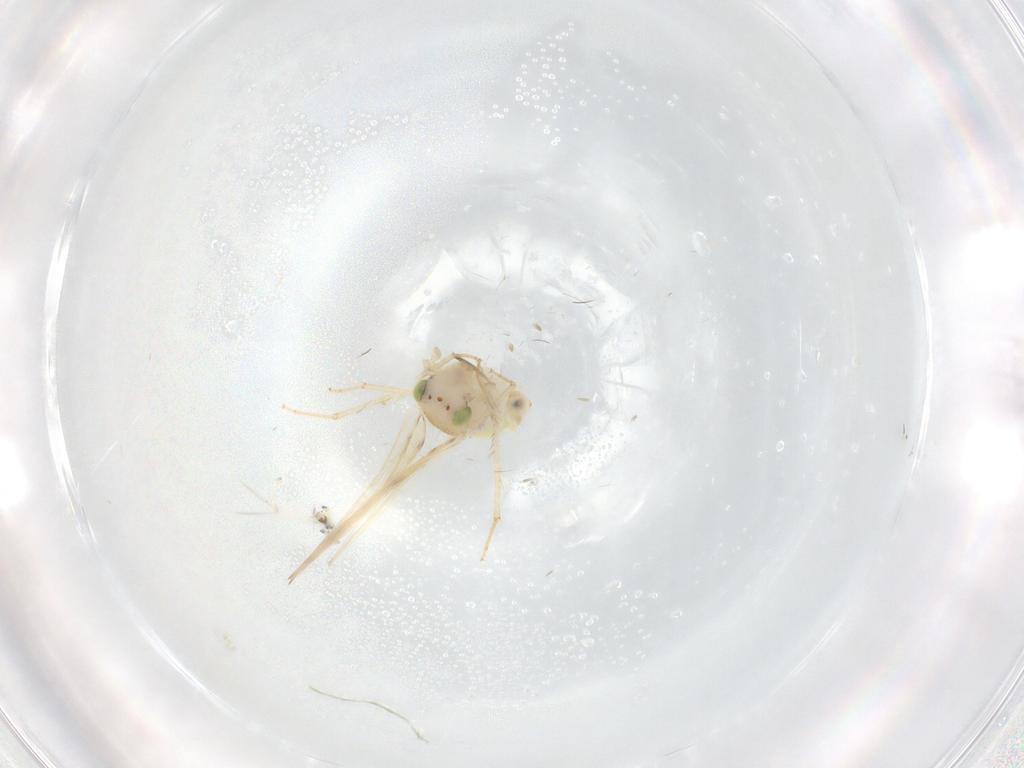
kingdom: Animalia
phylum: Arthropoda
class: Insecta
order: Psocodea
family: Lepidopsocidae
